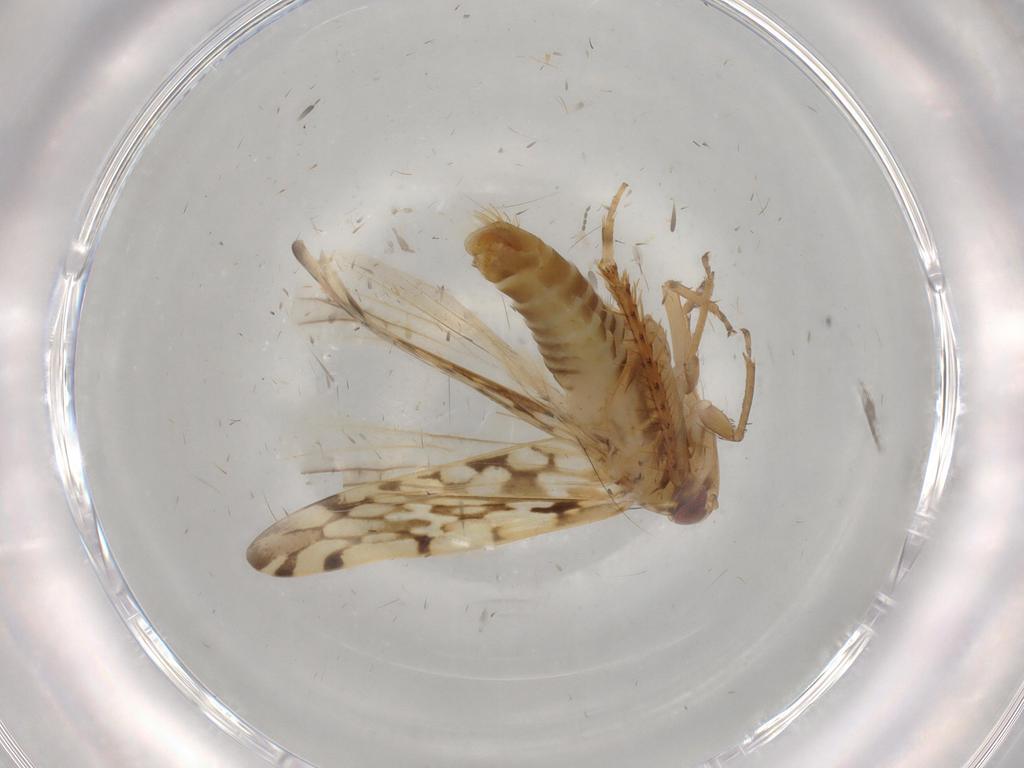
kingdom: Animalia
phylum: Arthropoda
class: Insecta
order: Hemiptera
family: Cicadellidae
